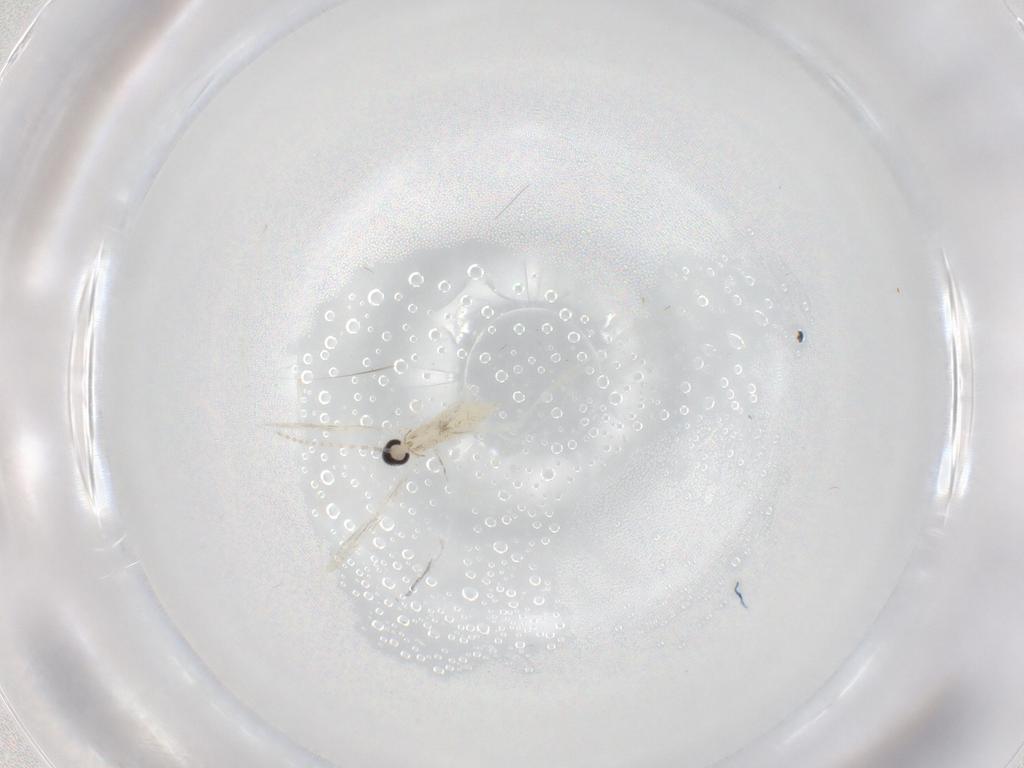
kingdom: Animalia
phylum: Arthropoda
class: Insecta
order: Diptera
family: Cecidomyiidae
